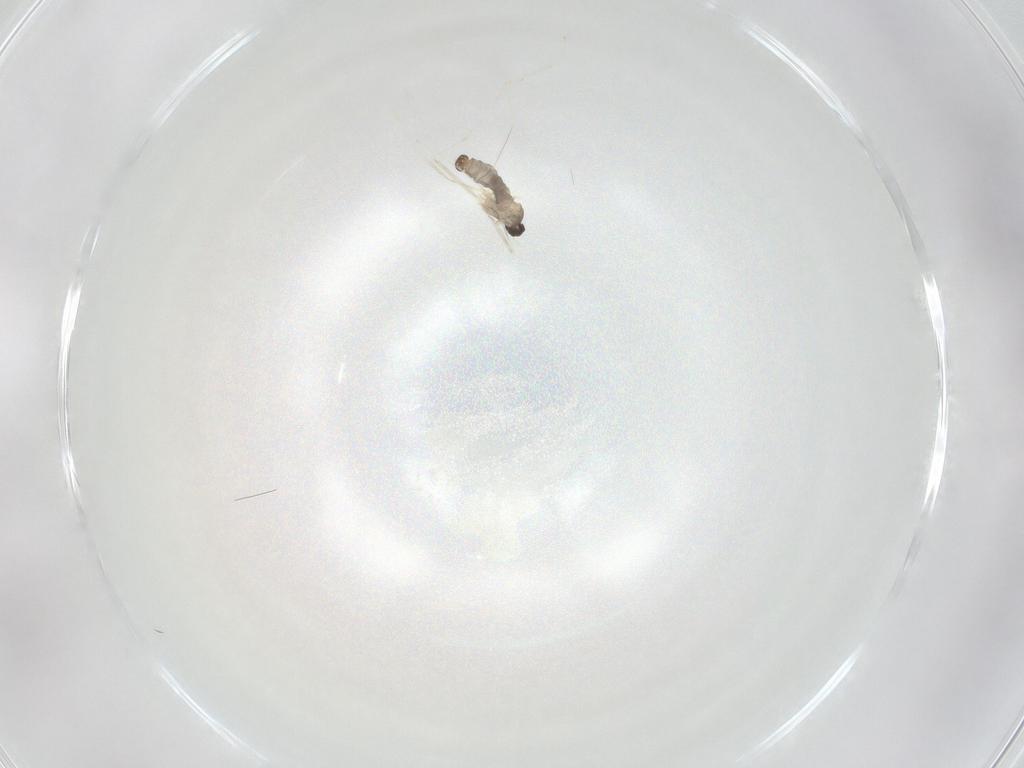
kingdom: Animalia
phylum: Arthropoda
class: Insecta
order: Diptera
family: Cecidomyiidae
